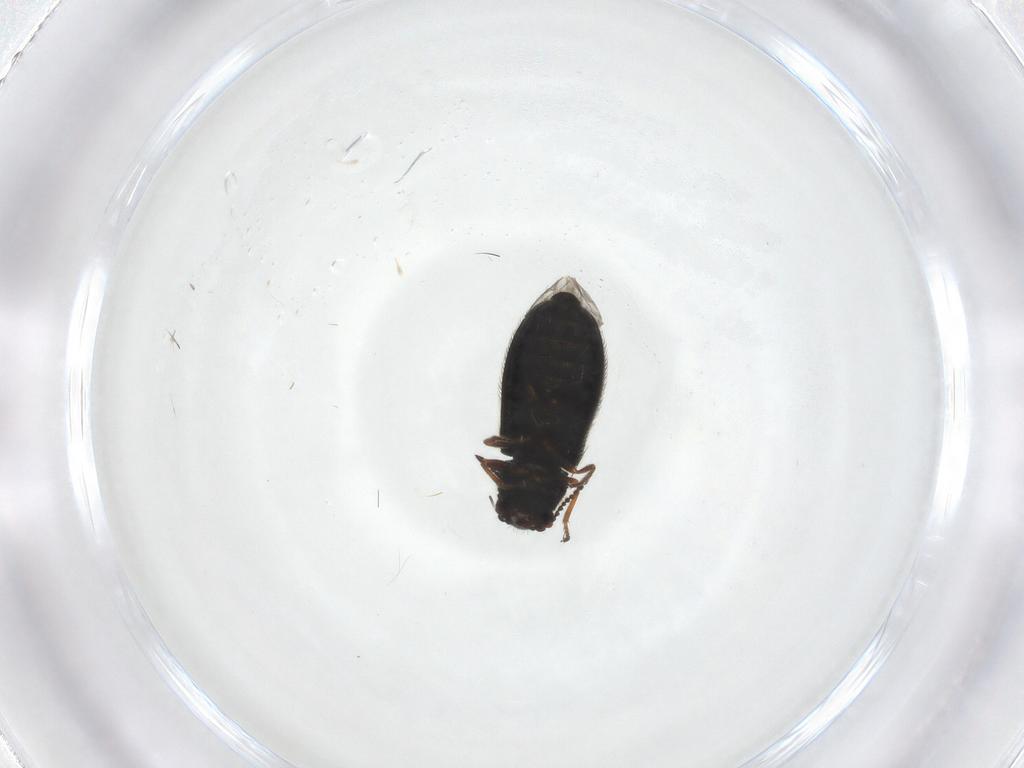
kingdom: Animalia
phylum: Arthropoda
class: Insecta
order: Coleoptera
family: Melyridae
